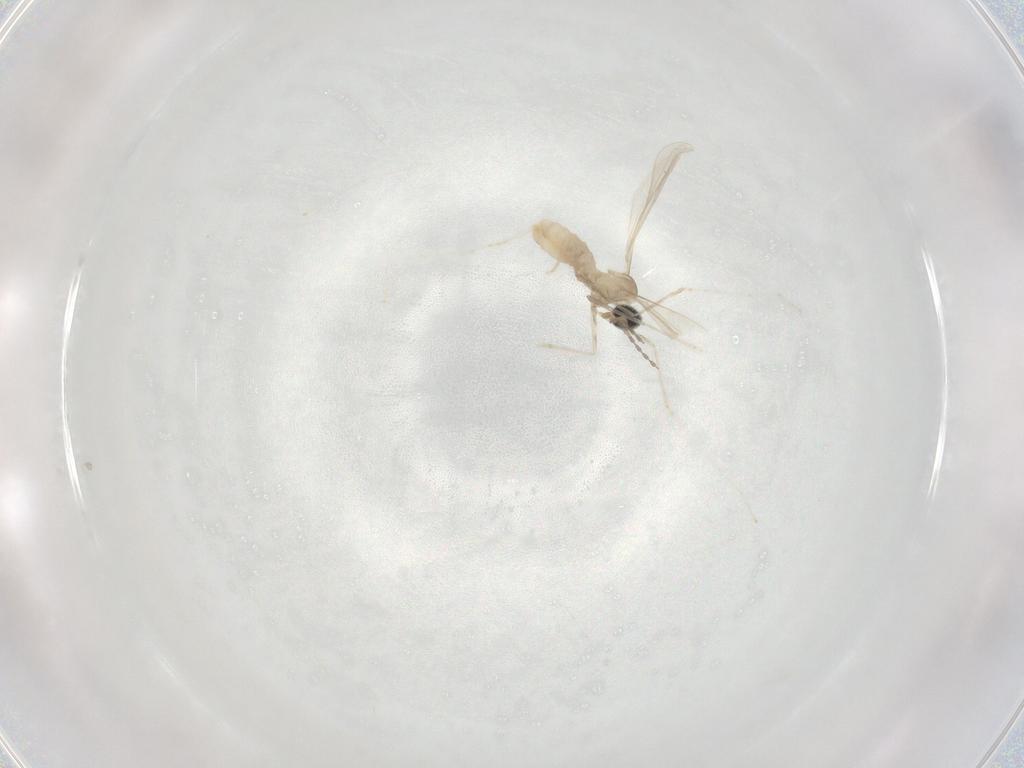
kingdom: Animalia
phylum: Arthropoda
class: Insecta
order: Diptera
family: Cecidomyiidae
